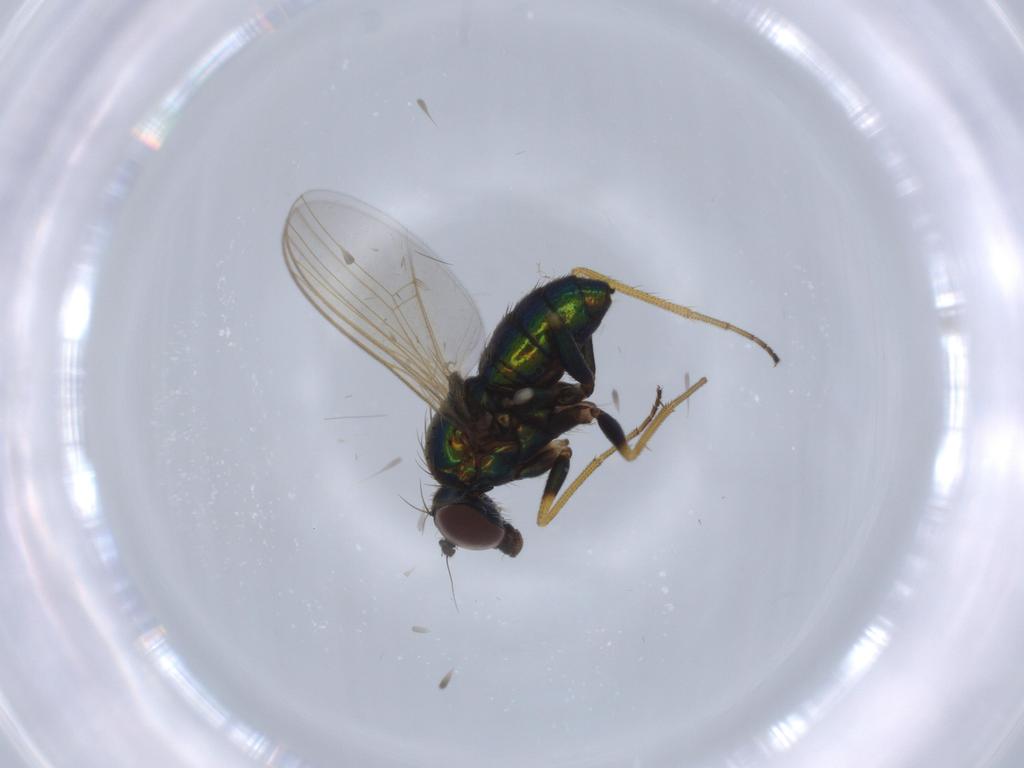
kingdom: Animalia
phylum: Arthropoda
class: Insecta
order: Diptera
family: Dolichopodidae
